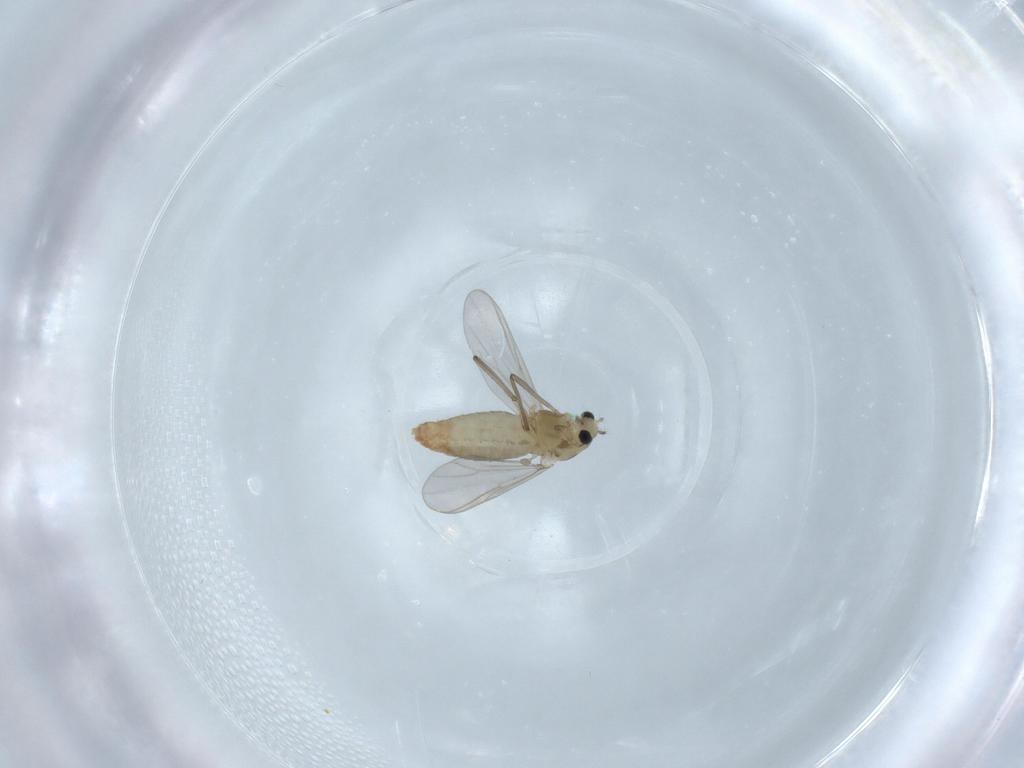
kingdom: Animalia
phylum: Arthropoda
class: Insecta
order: Diptera
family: Chironomidae
